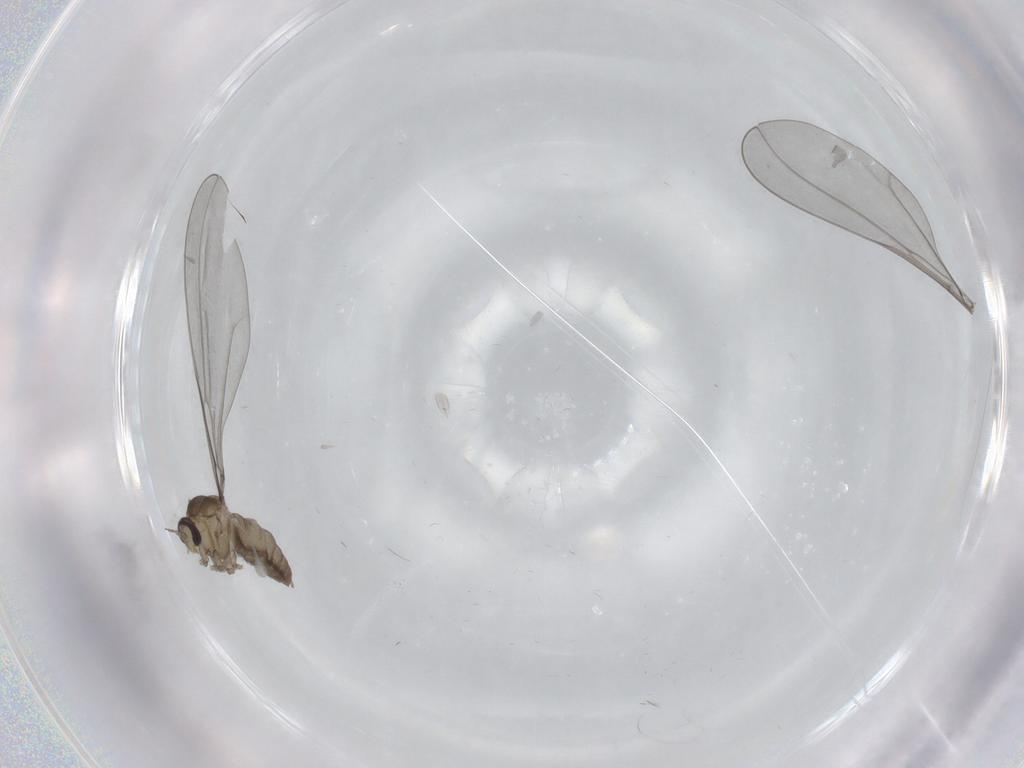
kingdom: Animalia
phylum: Arthropoda
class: Insecta
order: Diptera
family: Cecidomyiidae
